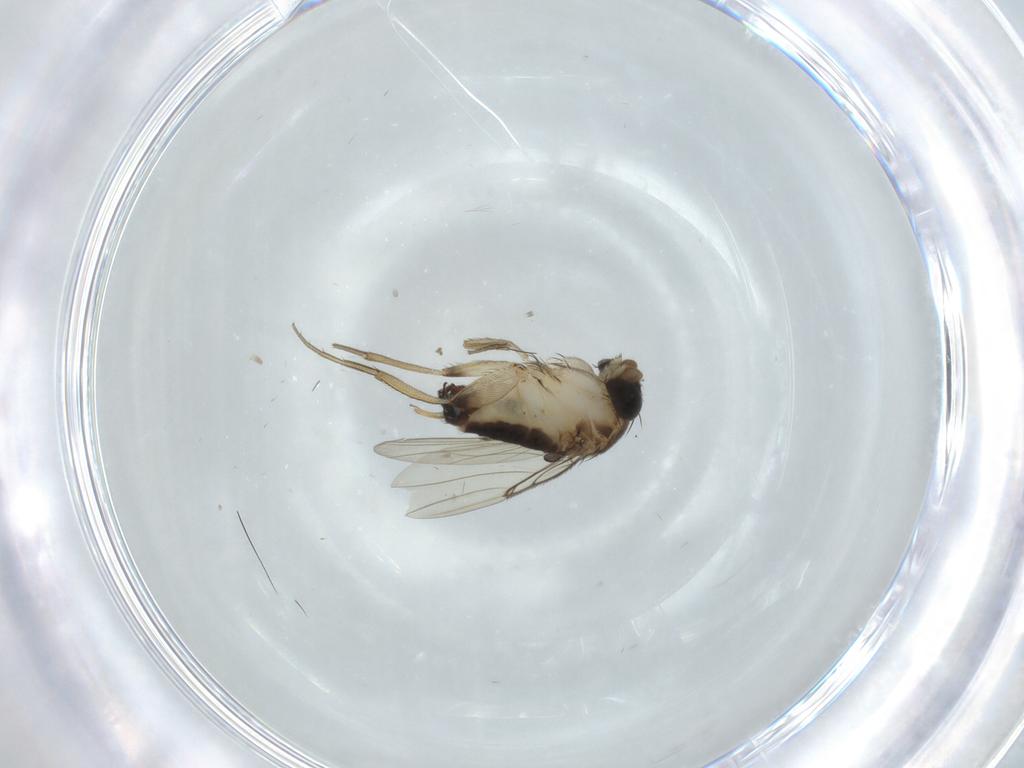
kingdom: Animalia
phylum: Arthropoda
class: Insecta
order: Diptera
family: Phoridae
